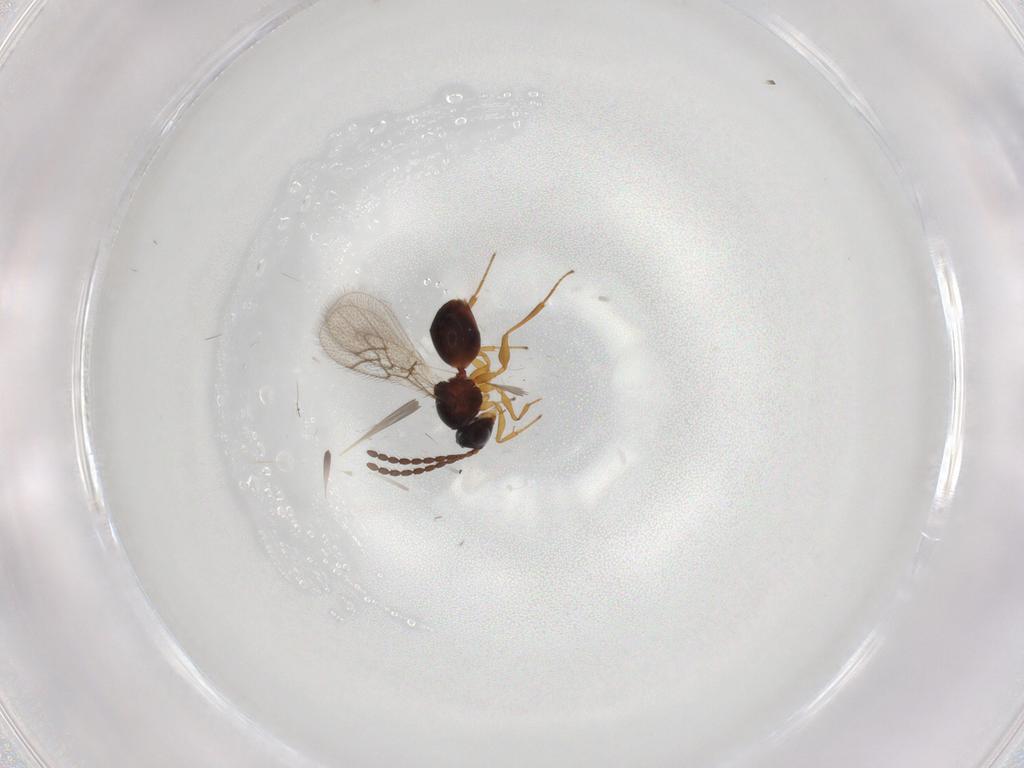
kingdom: Animalia
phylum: Arthropoda
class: Insecta
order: Hymenoptera
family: Figitidae
